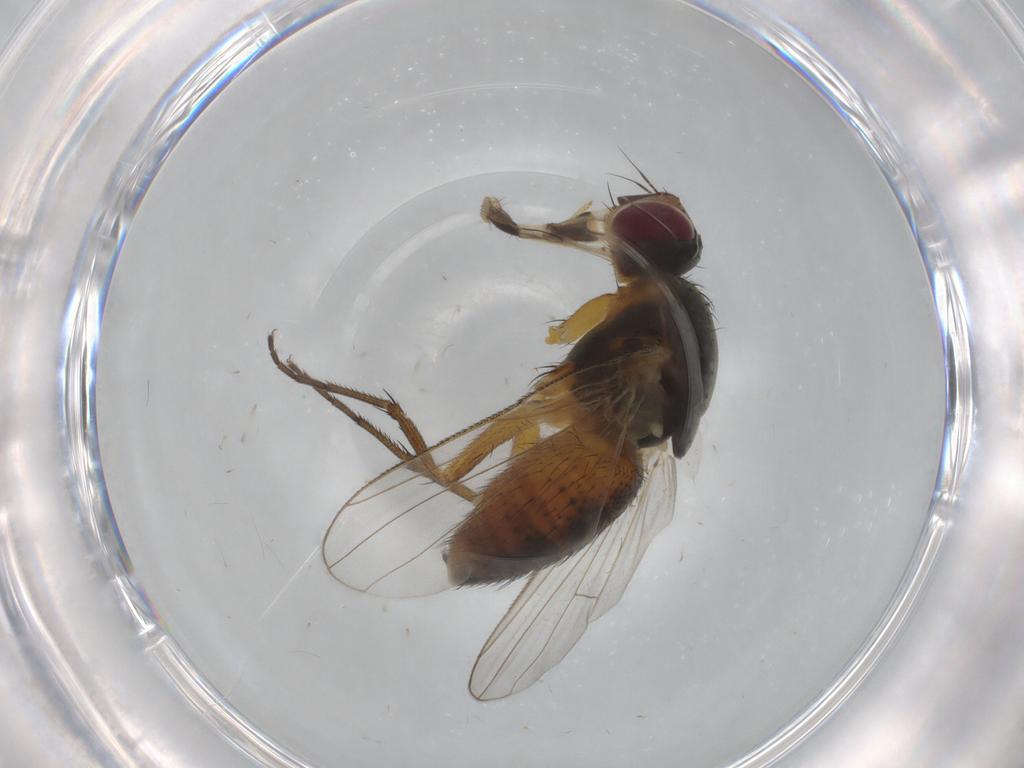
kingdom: Animalia
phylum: Arthropoda
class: Insecta
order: Diptera
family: Muscidae
